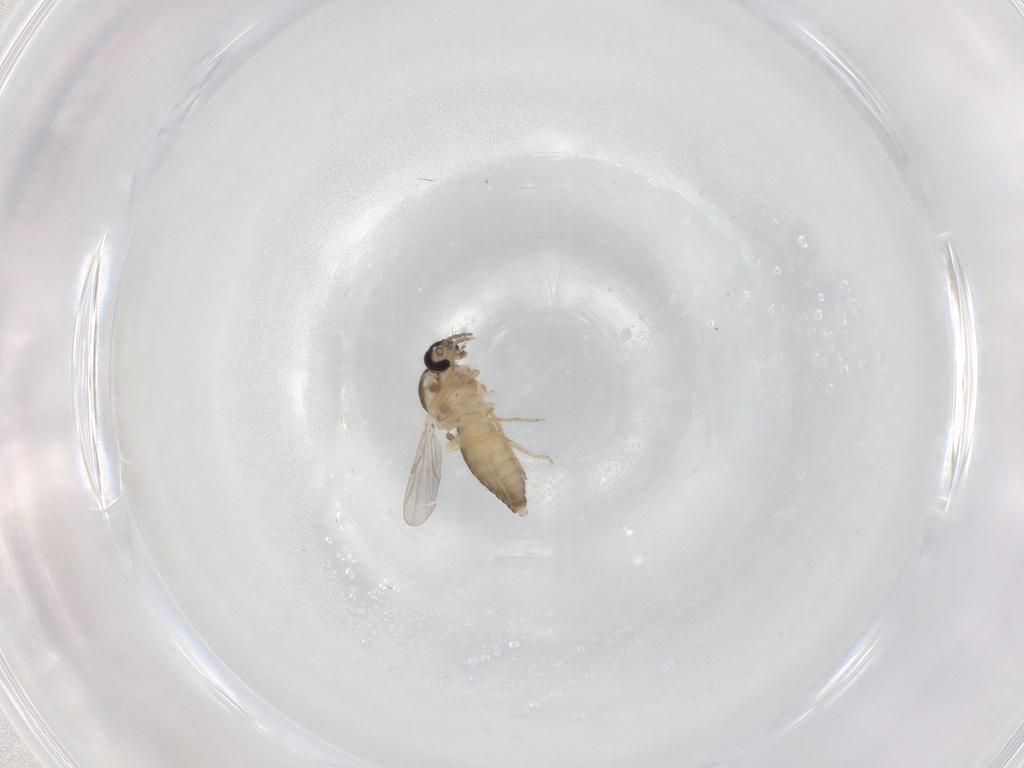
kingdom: Animalia
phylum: Arthropoda
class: Insecta
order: Diptera
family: Ceratopogonidae
